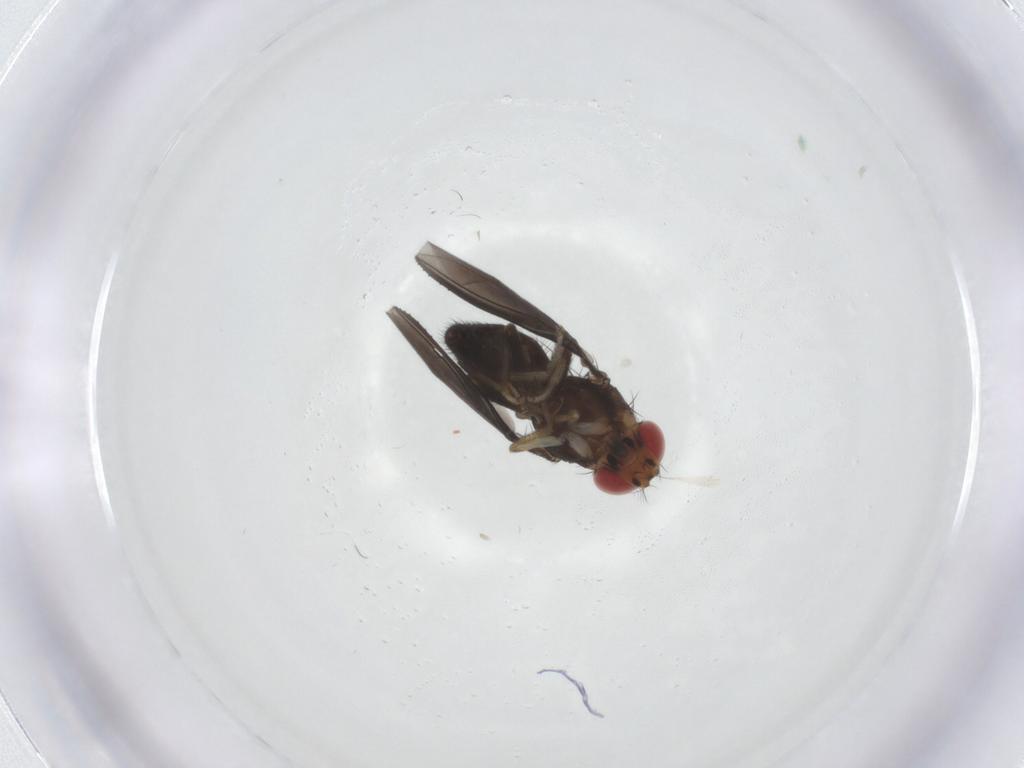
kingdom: Animalia
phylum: Arthropoda
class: Insecta
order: Diptera
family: Drosophilidae
